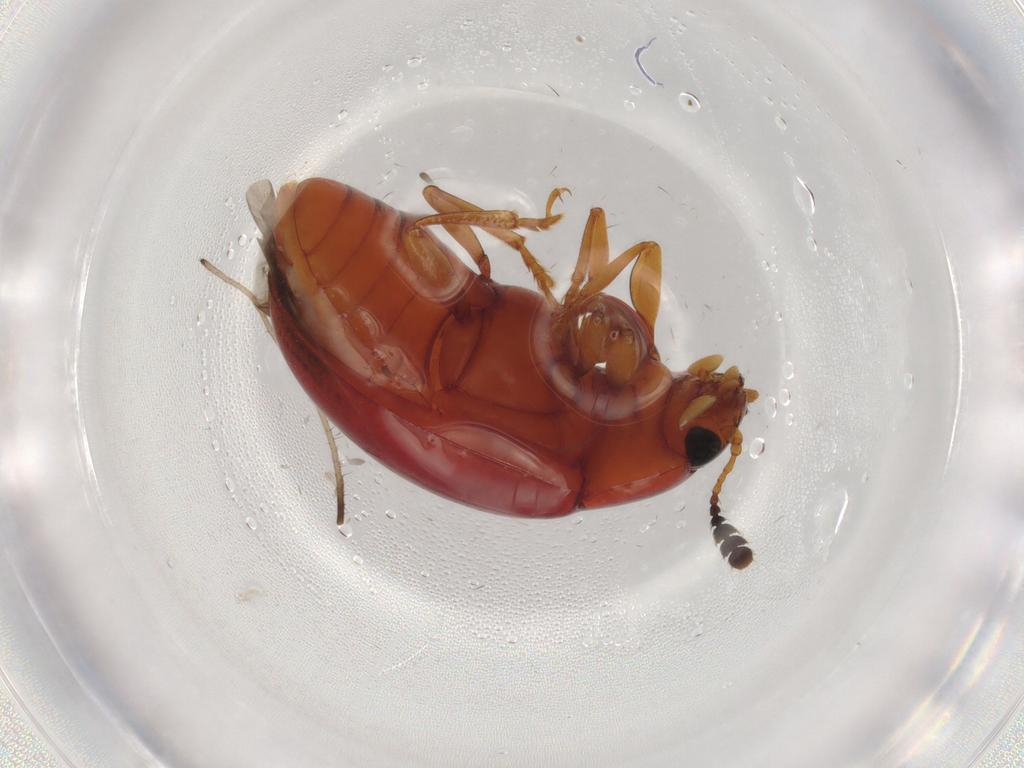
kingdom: Animalia
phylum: Arthropoda
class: Insecta
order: Coleoptera
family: Erotylidae
